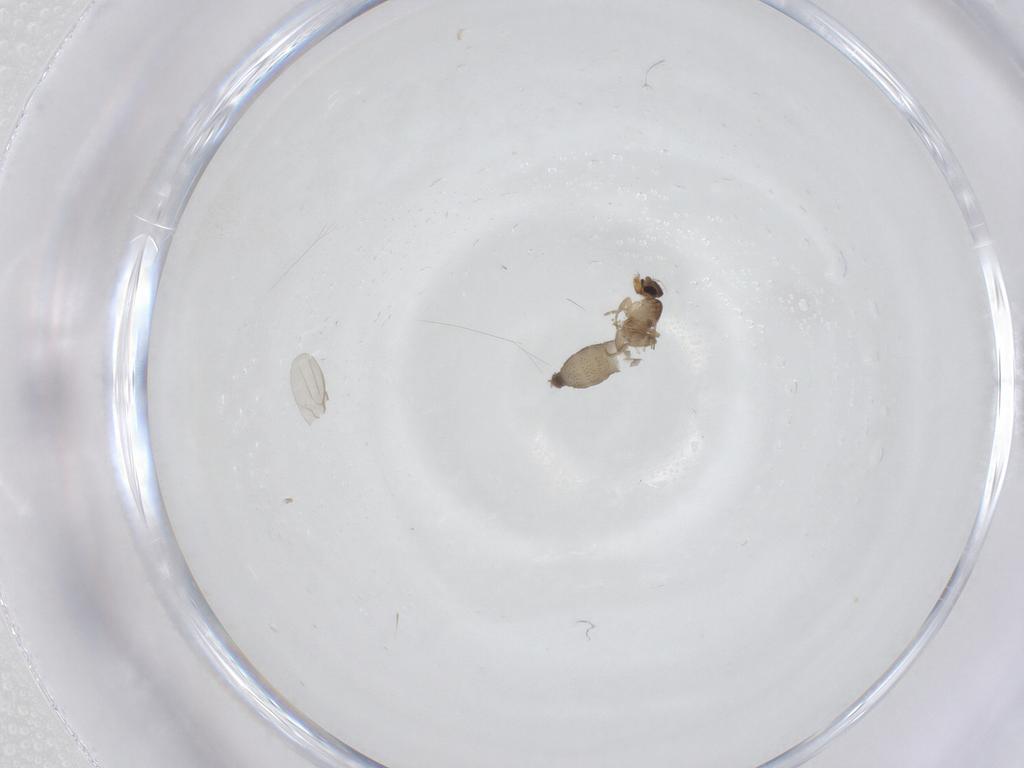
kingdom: Animalia
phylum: Arthropoda
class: Insecta
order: Diptera
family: Phoridae
